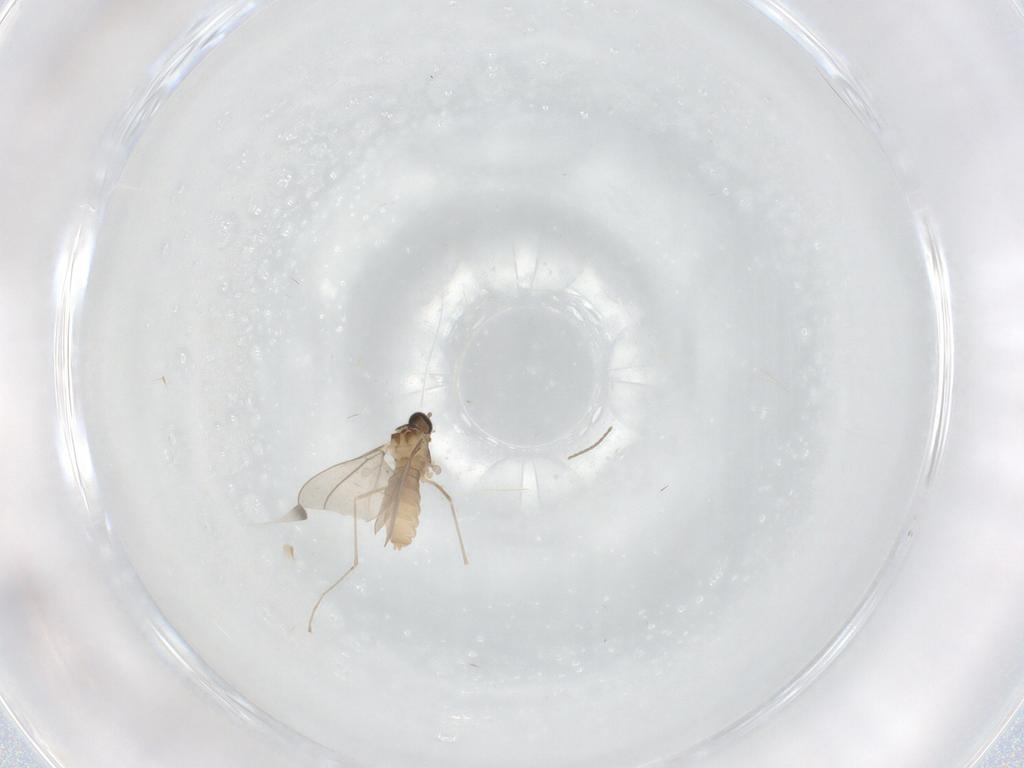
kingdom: Animalia
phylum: Arthropoda
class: Insecta
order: Diptera
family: Cecidomyiidae
